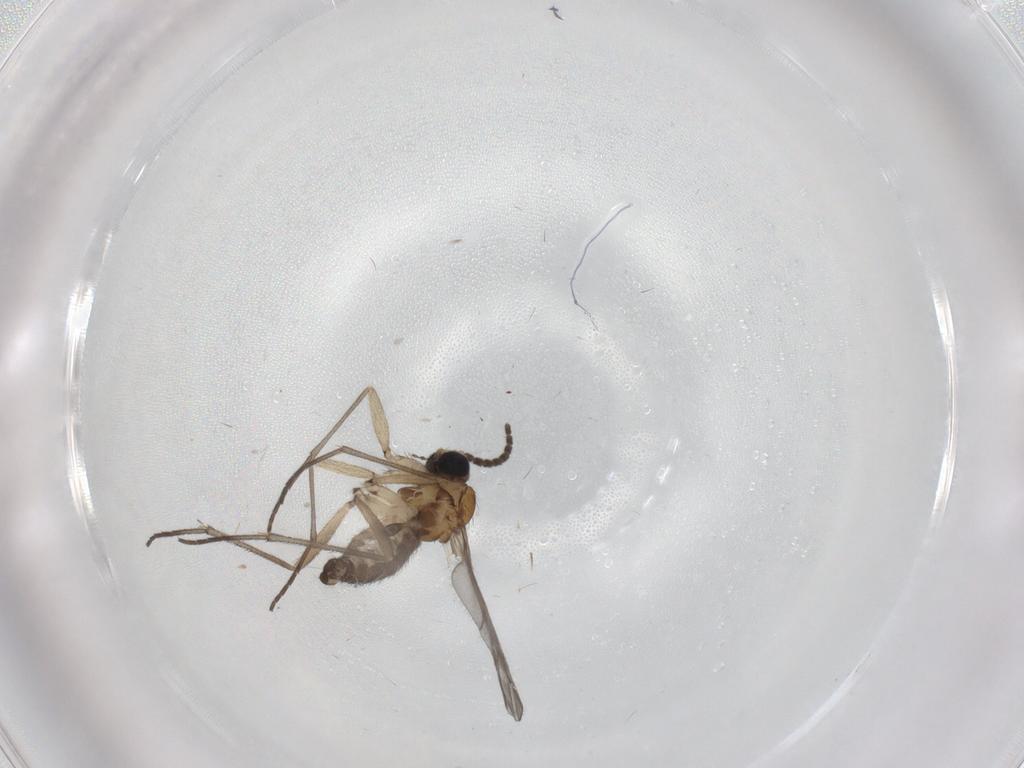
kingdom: Animalia
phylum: Arthropoda
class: Insecta
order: Diptera
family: Sciaridae
